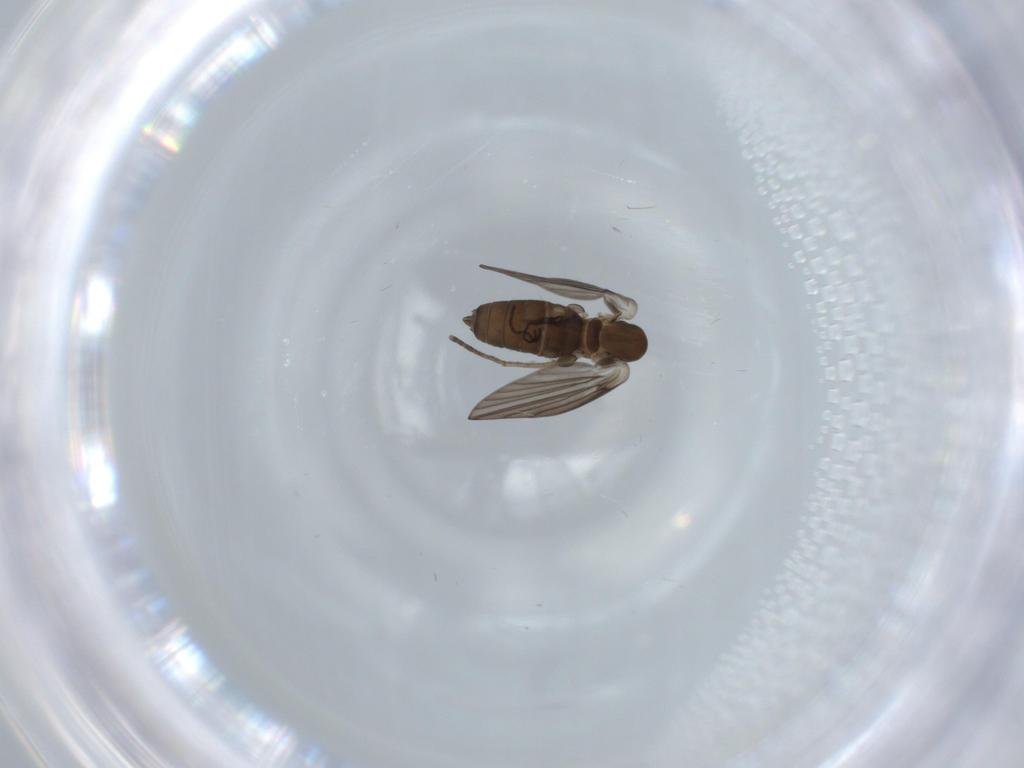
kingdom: Animalia
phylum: Arthropoda
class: Insecta
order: Diptera
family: Psychodidae
